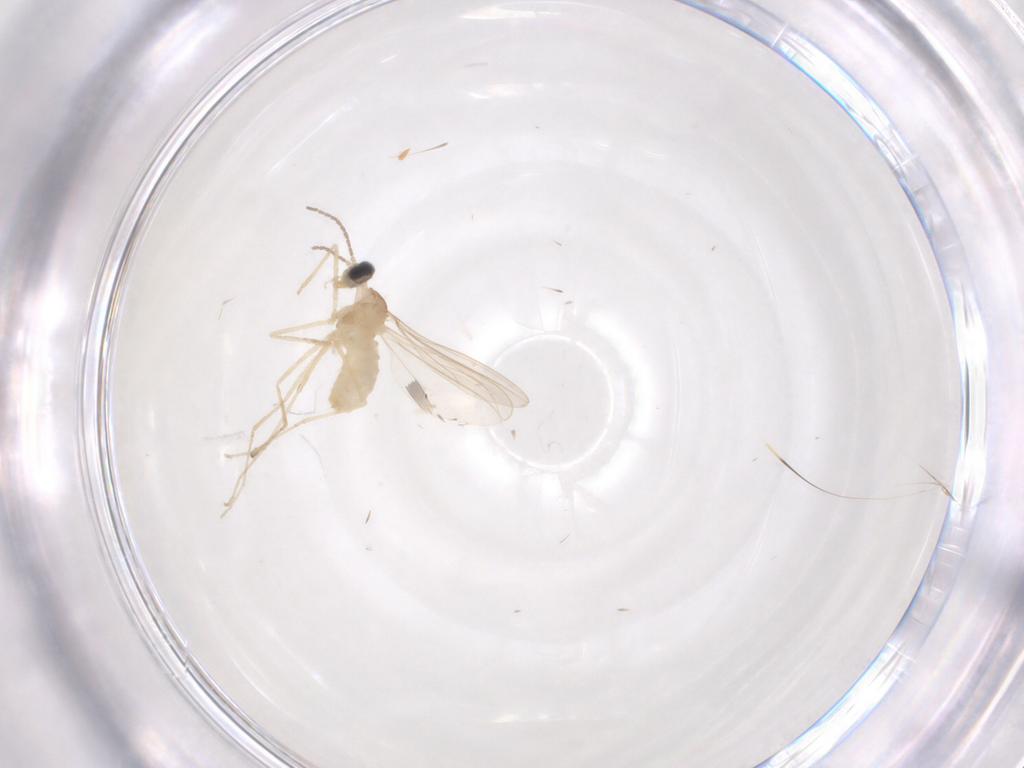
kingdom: Animalia
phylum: Arthropoda
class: Insecta
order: Diptera
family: Cecidomyiidae
